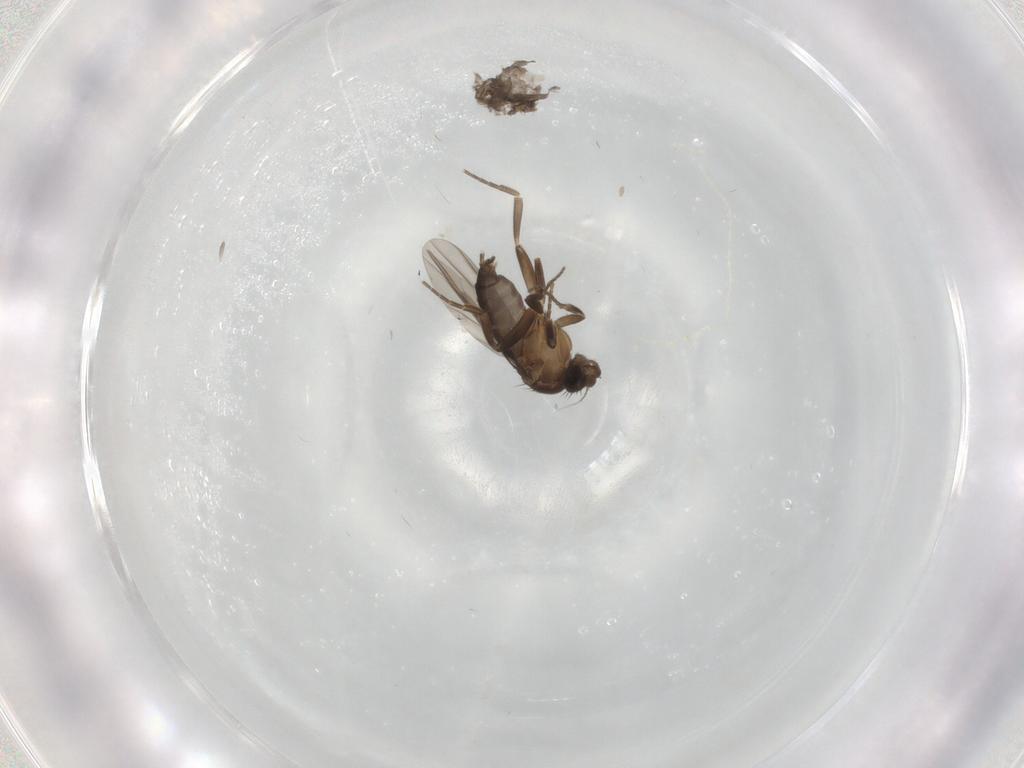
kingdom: Animalia
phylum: Arthropoda
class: Insecta
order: Diptera
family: Phoridae
